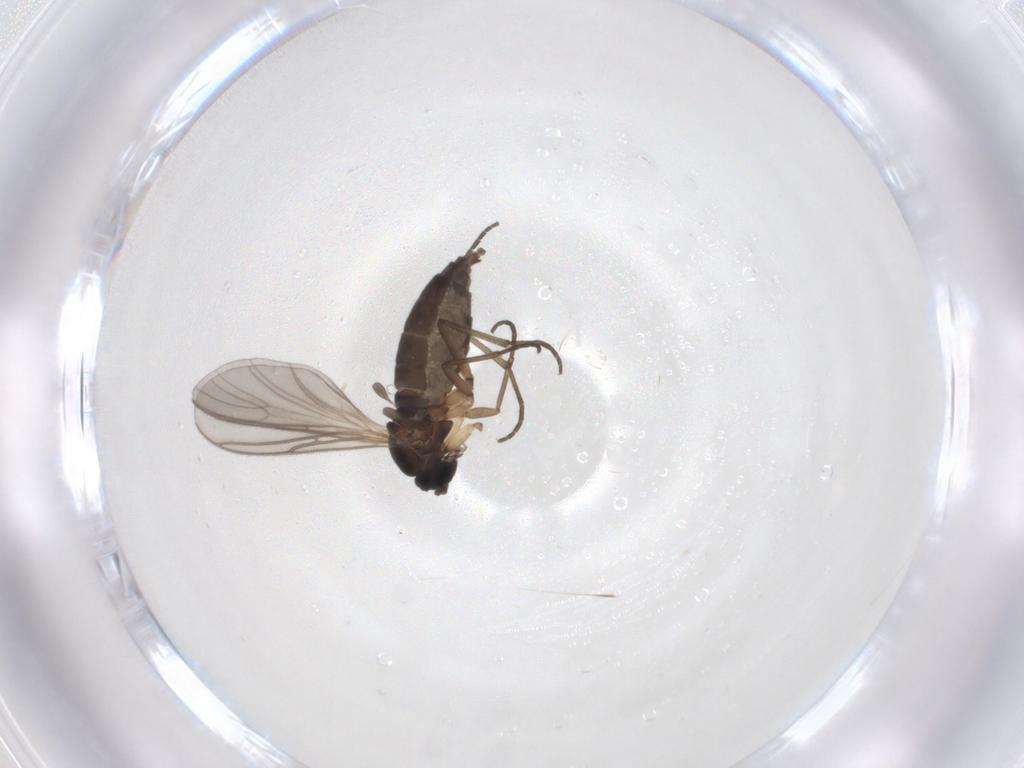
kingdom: Animalia
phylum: Arthropoda
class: Insecta
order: Diptera
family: Sciaridae
